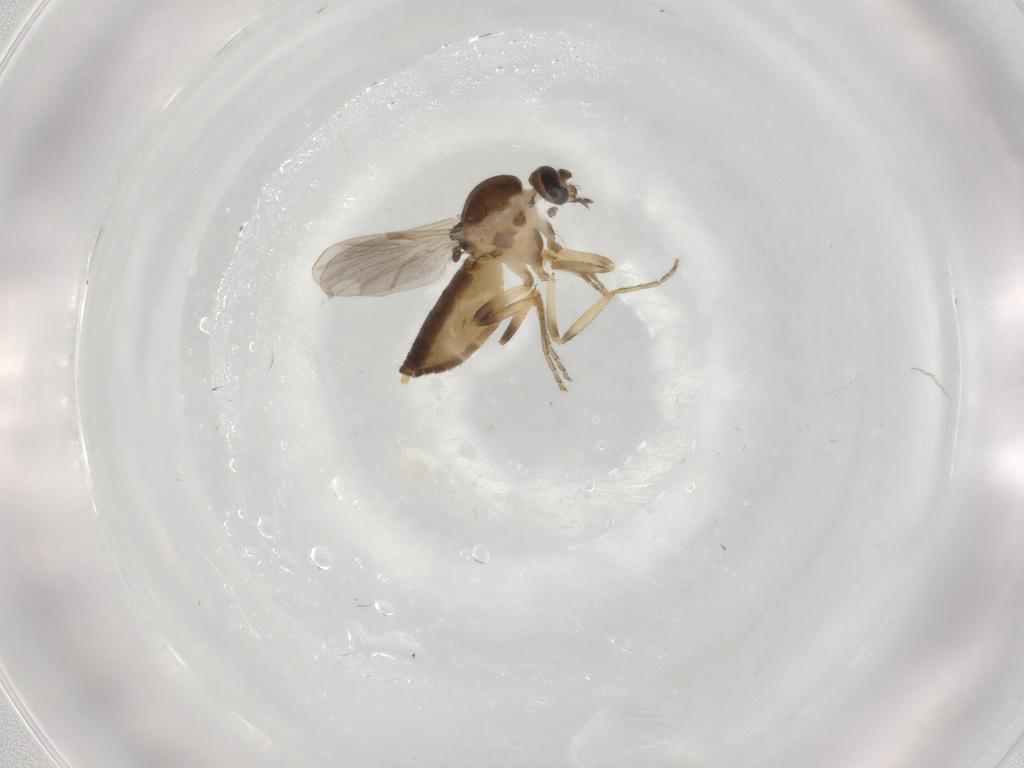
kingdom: Animalia
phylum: Arthropoda
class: Insecta
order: Diptera
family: Ceratopogonidae
